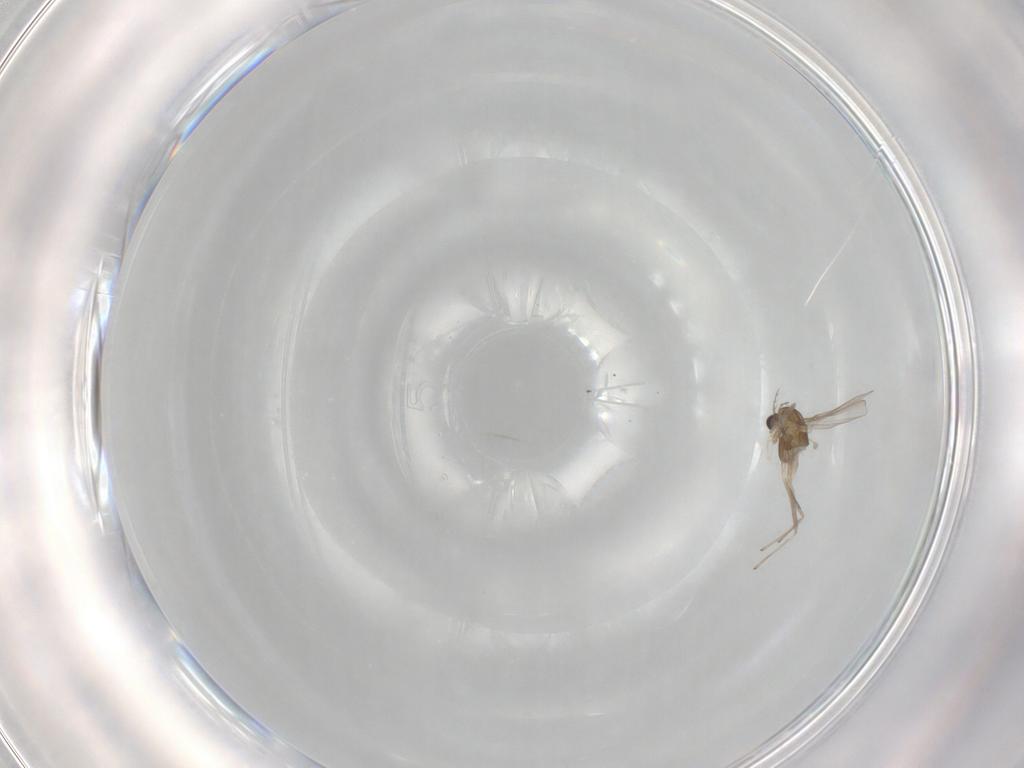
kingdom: Animalia
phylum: Arthropoda
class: Insecta
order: Diptera
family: Chironomidae
